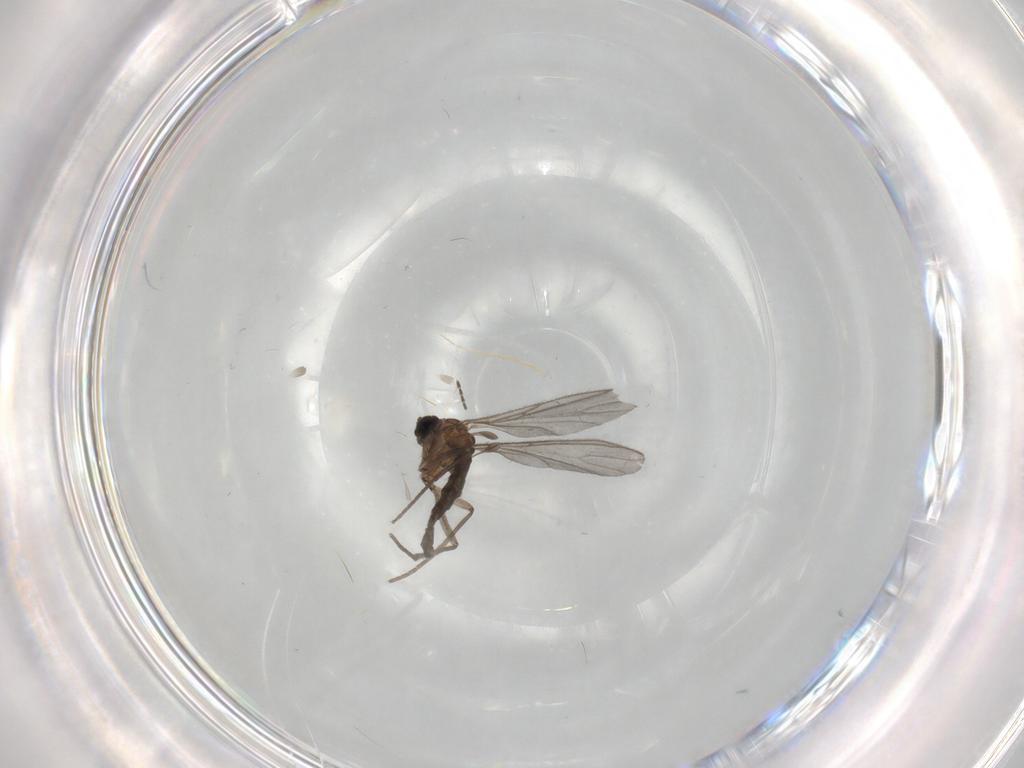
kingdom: Animalia
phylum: Arthropoda
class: Insecta
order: Diptera
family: Sciaridae
